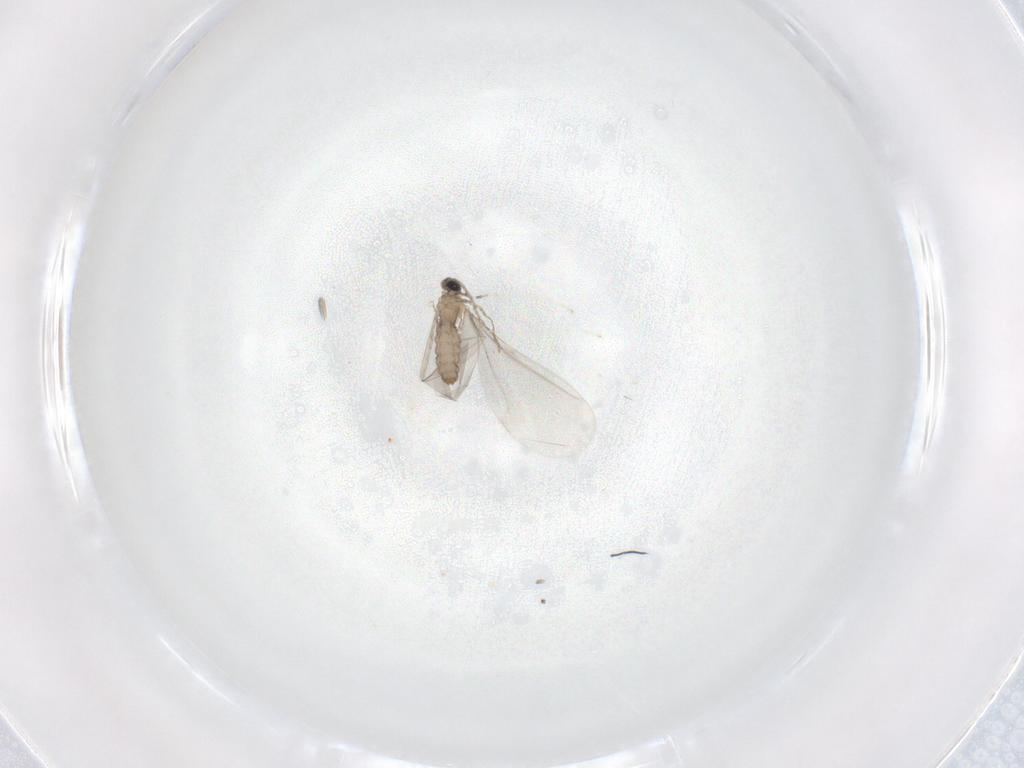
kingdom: Animalia
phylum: Arthropoda
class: Insecta
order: Diptera
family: Cecidomyiidae
